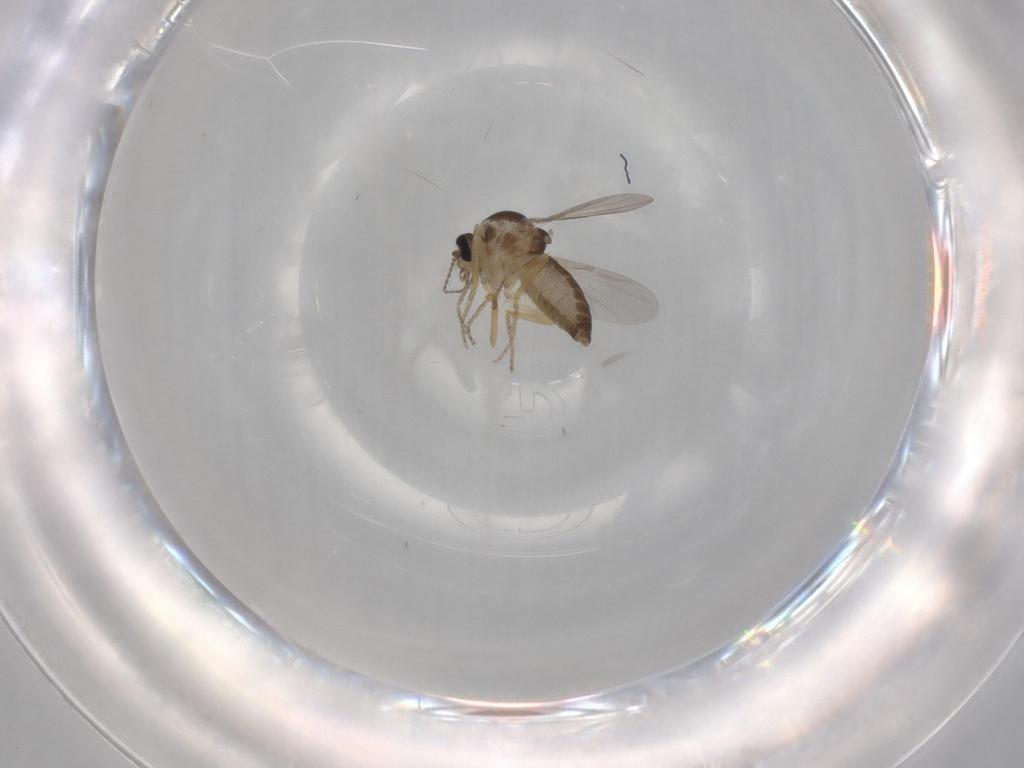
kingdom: Animalia
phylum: Arthropoda
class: Insecta
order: Diptera
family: Ceratopogonidae
